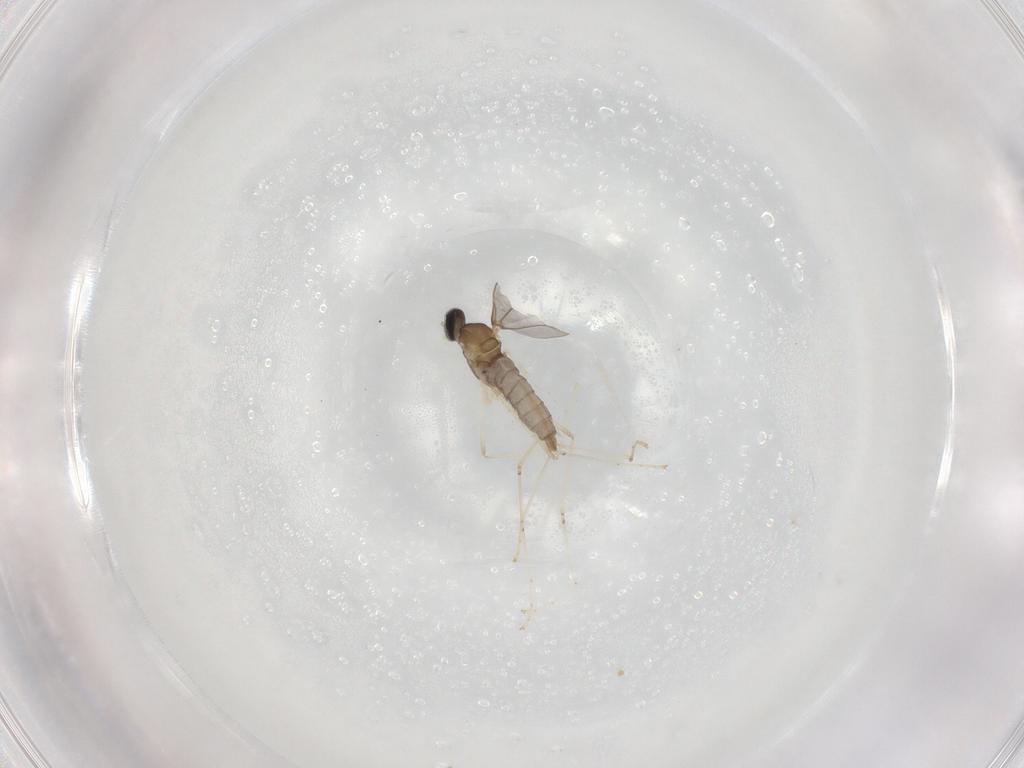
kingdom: Animalia
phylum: Arthropoda
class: Insecta
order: Diptera
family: Cecidomyiidae
